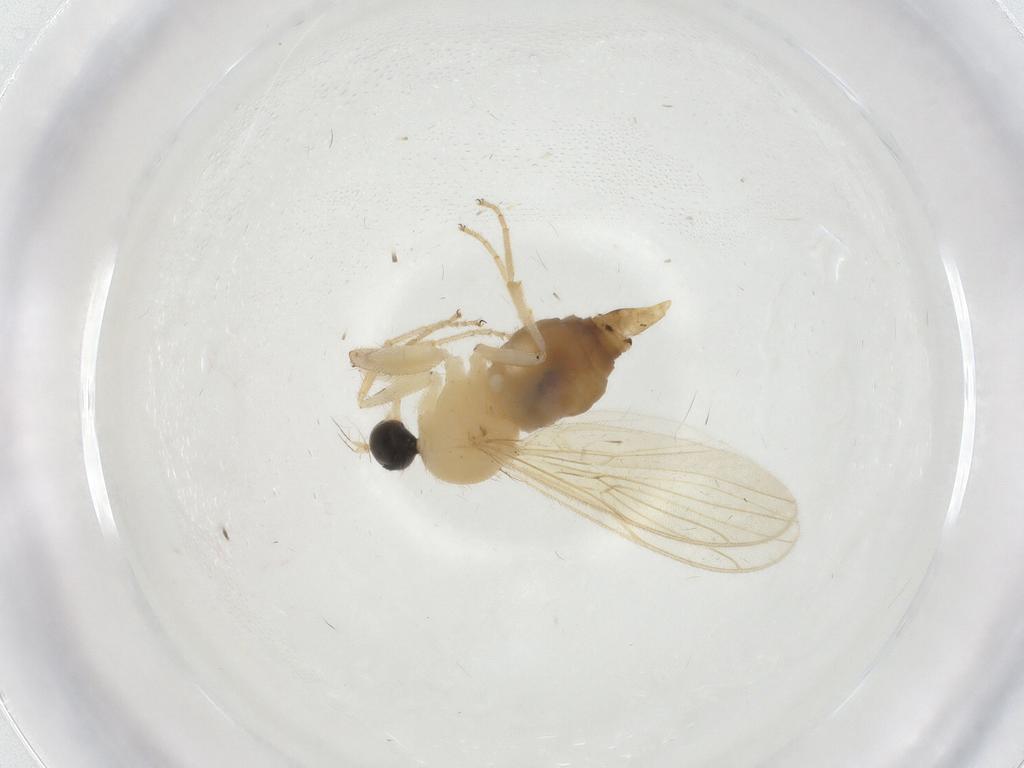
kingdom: Animalia
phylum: Arthropoda
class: Insecta
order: Diptera
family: Hybotidae
